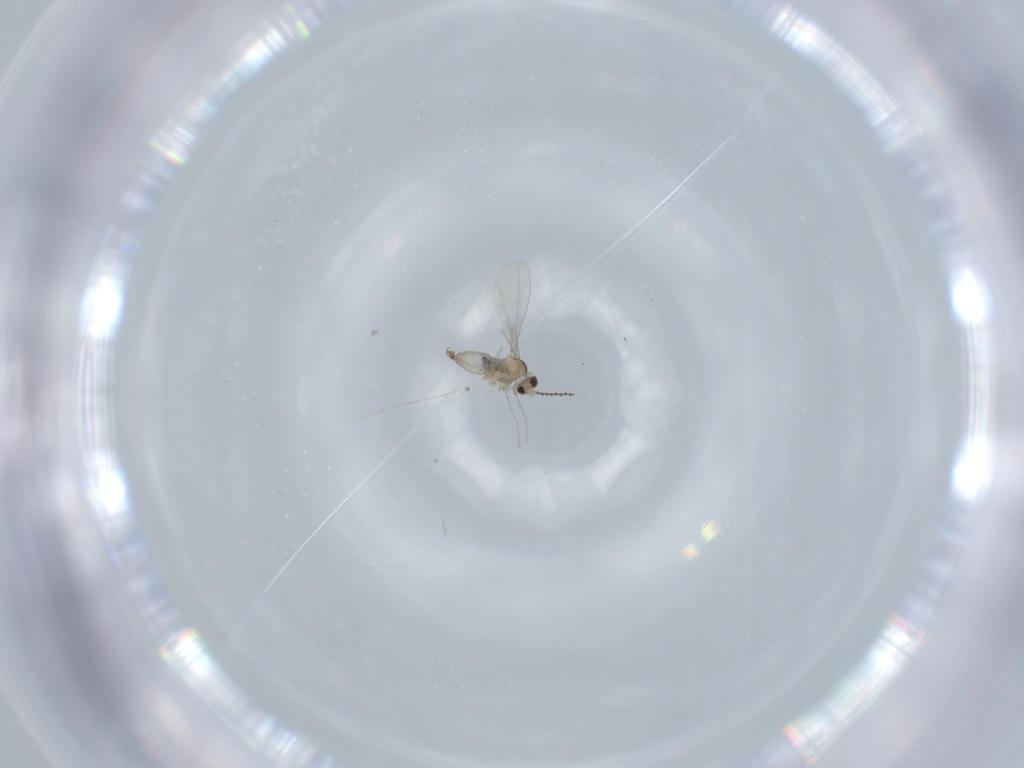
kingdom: Animalia
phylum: Arthropoda
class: Insecta
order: Diptera
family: Cecidomyiidae
